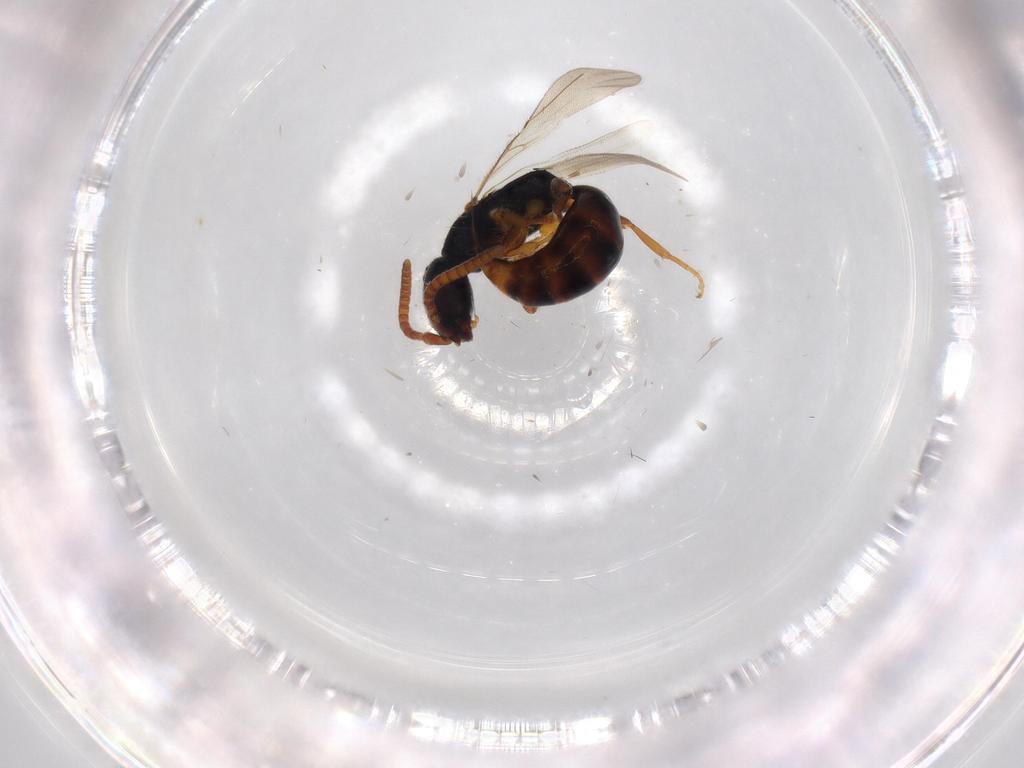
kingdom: Animalia
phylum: Arthropoda
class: Insecta
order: Hymenoptera
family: Bethylidae
